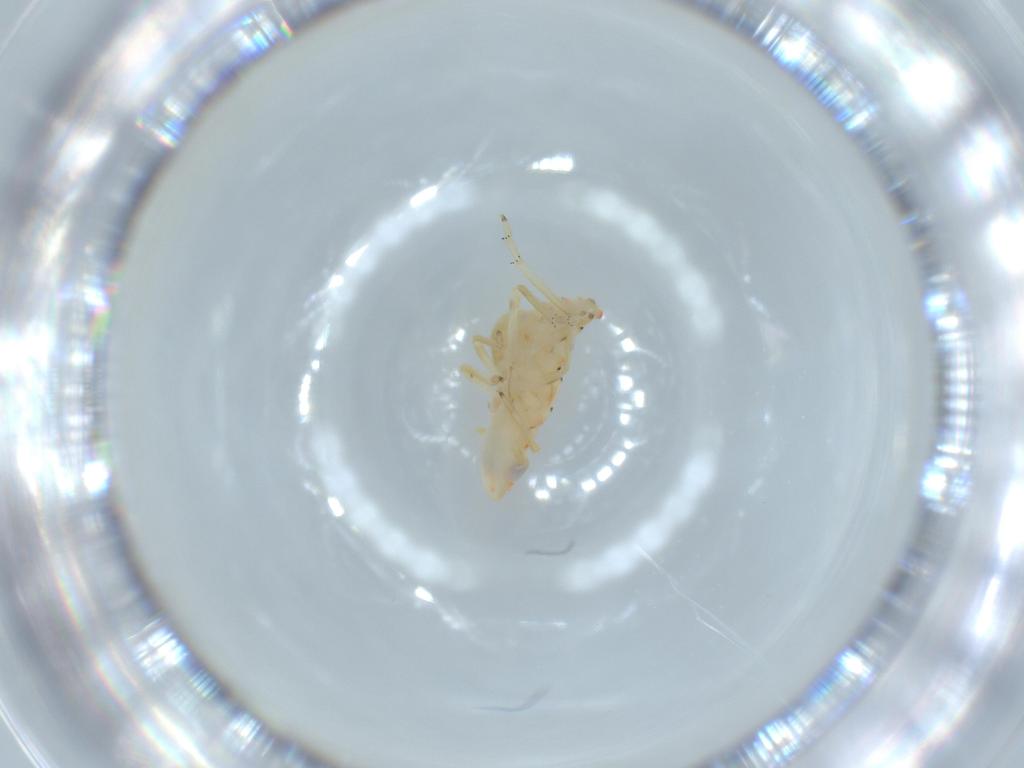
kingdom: Animalia
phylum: Arthropoda
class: Insecta
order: Hemiptera
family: Tropiduchidae
